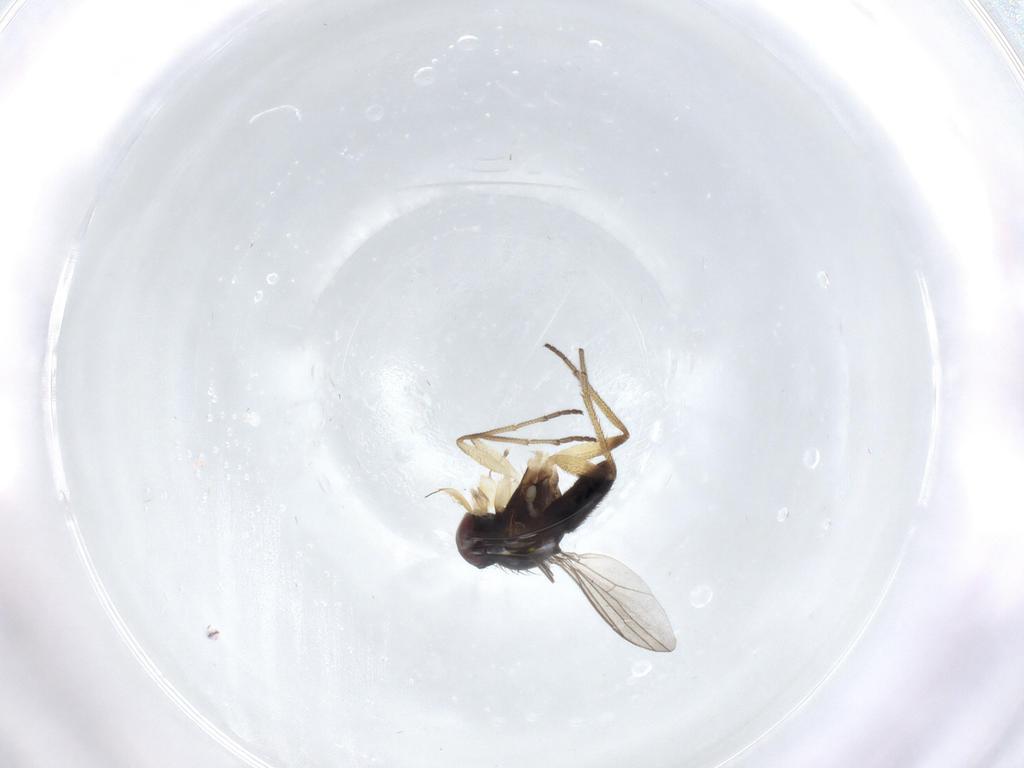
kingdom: Animalia
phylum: Arthropoda
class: Insecta
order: Diptera
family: Dolichopodidae
